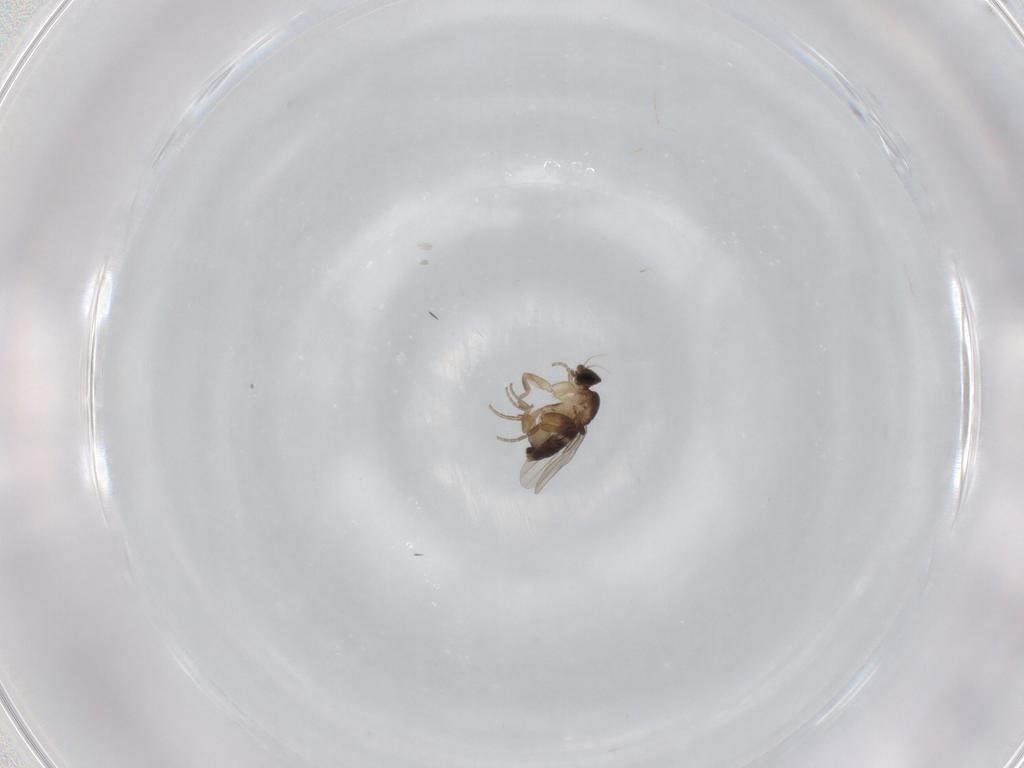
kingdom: Animalia
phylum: Arthropoda
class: Insecta
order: Diptera
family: Phoridae
